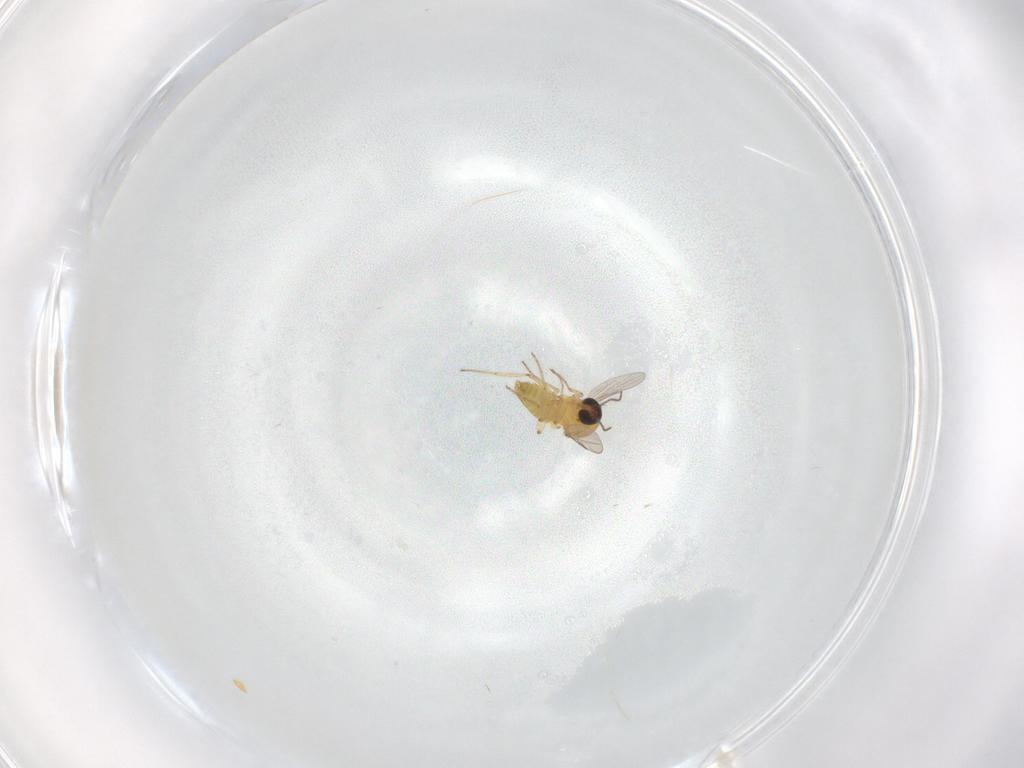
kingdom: Animalia
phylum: Arthropoda
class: Insecta
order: Diptera
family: Ceratopogonidae
